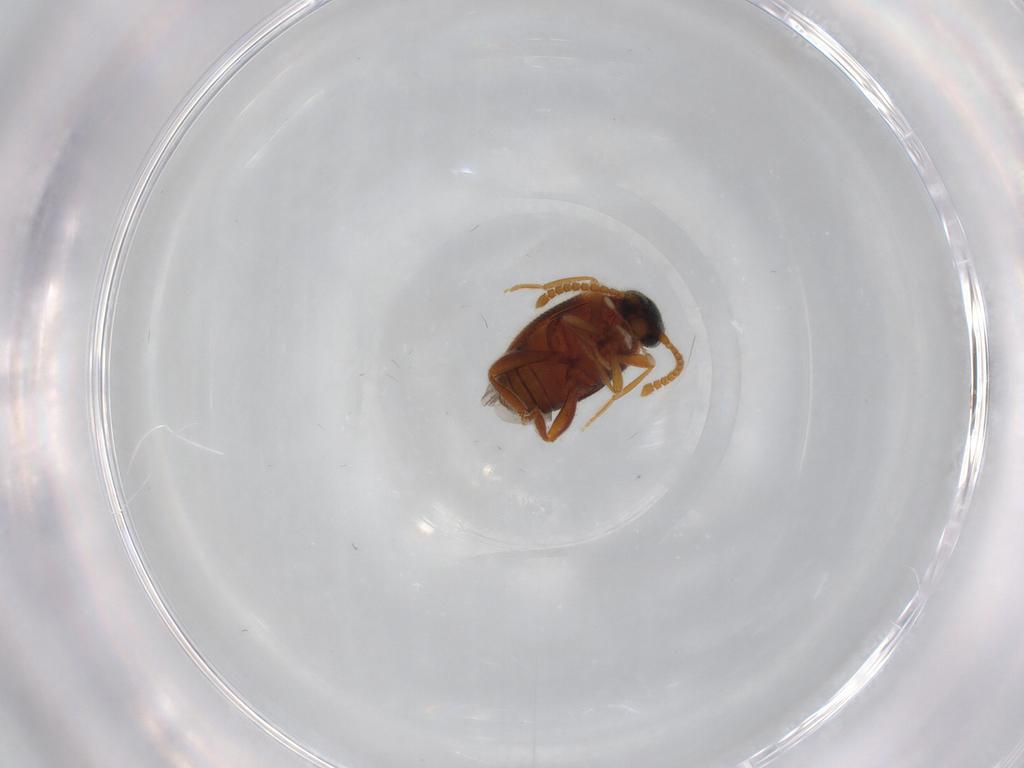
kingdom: Animalia
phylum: Arthropoda
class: Insecta
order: Coleoptera
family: Aderidae
